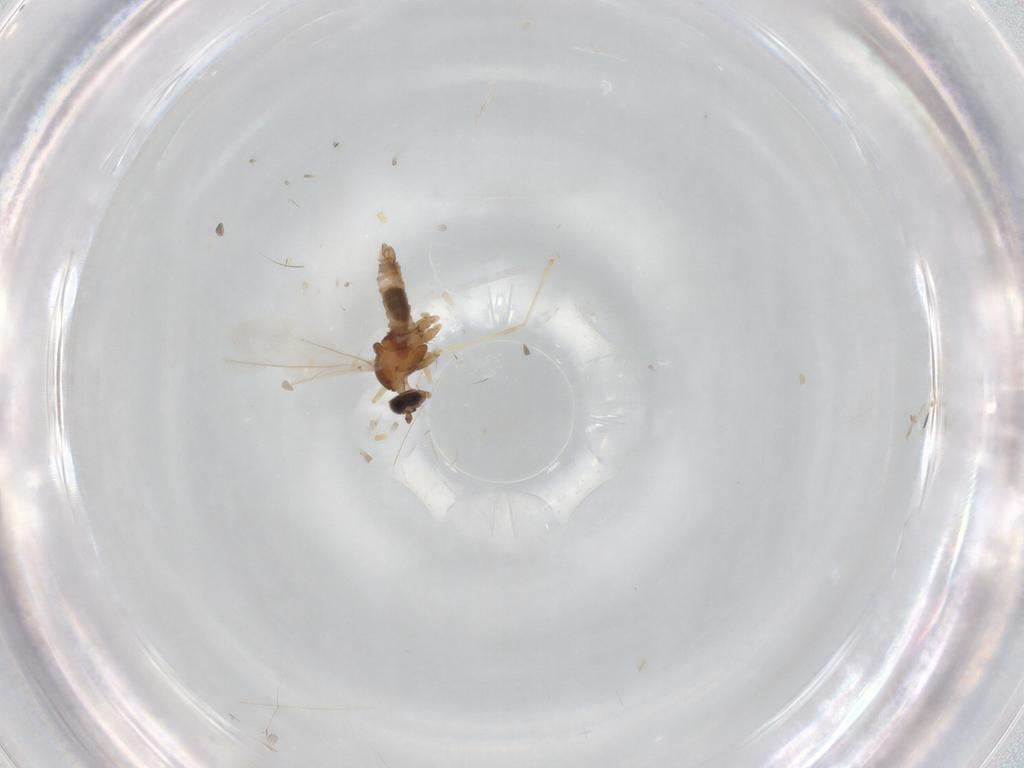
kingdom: Animalia
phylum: Arthropoda
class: Insecta
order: Diptera
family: Cecidomyiidae
